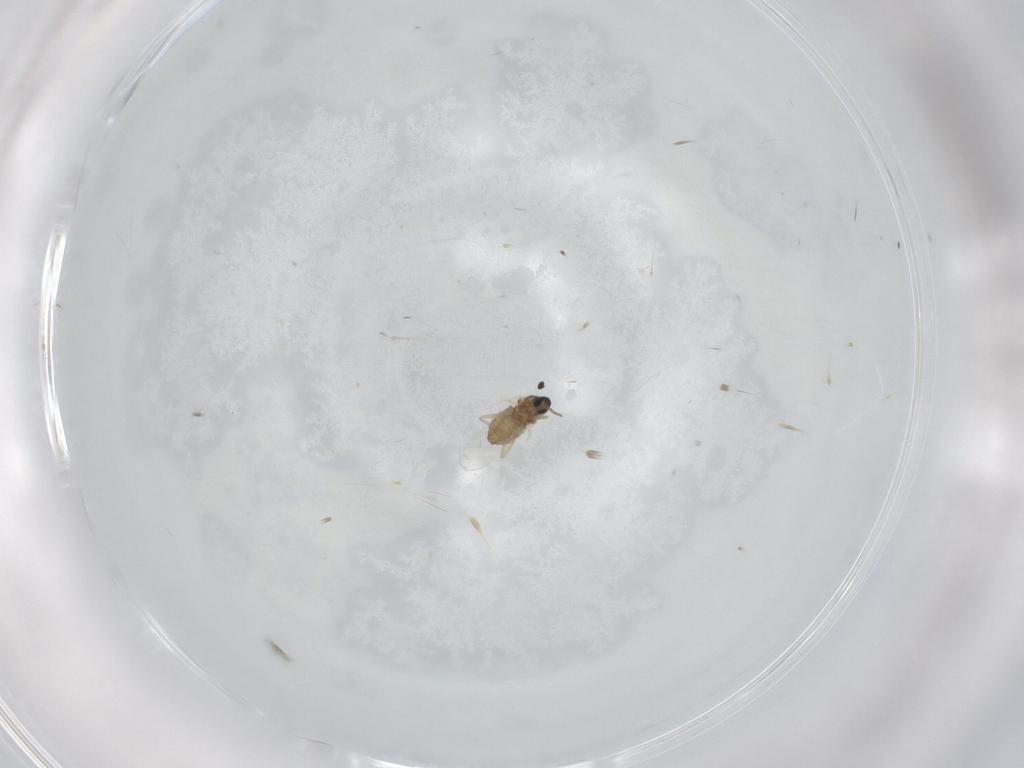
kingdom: Animalia
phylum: Arthropoda
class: Insecta
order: Diptera
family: Cecidomyiidae
